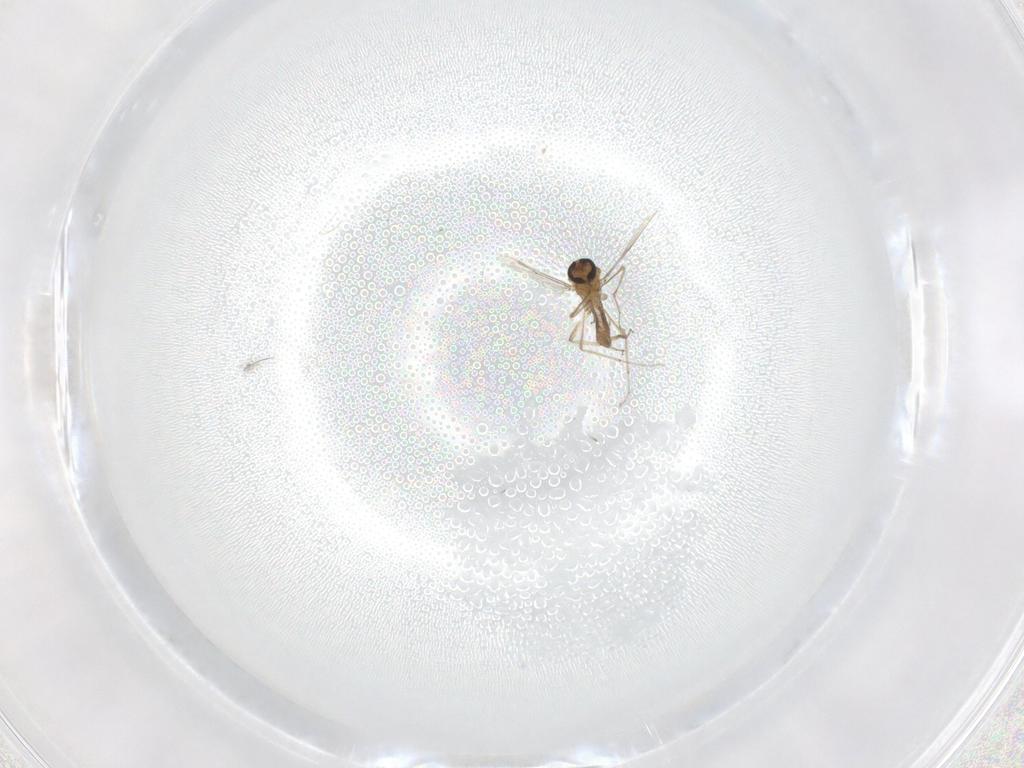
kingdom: Animalia
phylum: Arthropoda
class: Insecta
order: Diptera
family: Ceratopogonidae
